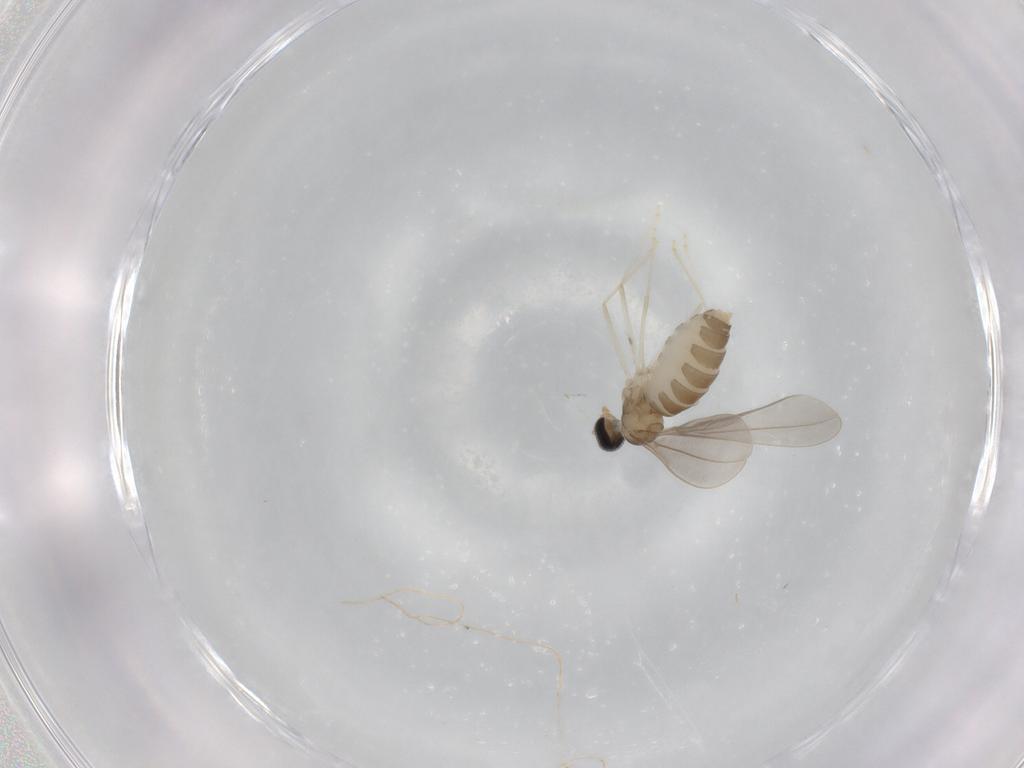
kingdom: Animalia
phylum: Arthropoda
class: Insecta
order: Diptera
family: Cecidomyiidae
